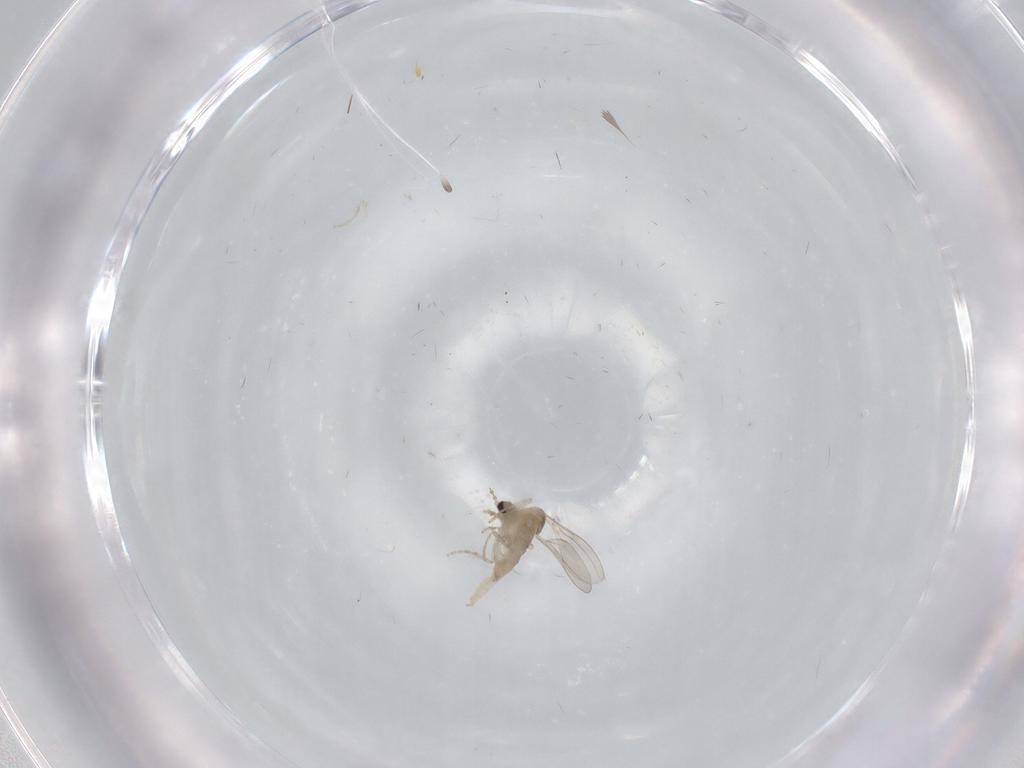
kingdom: Animalia
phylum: Arthropoda
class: Insecta
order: Diptera
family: Cecidomyiidae
